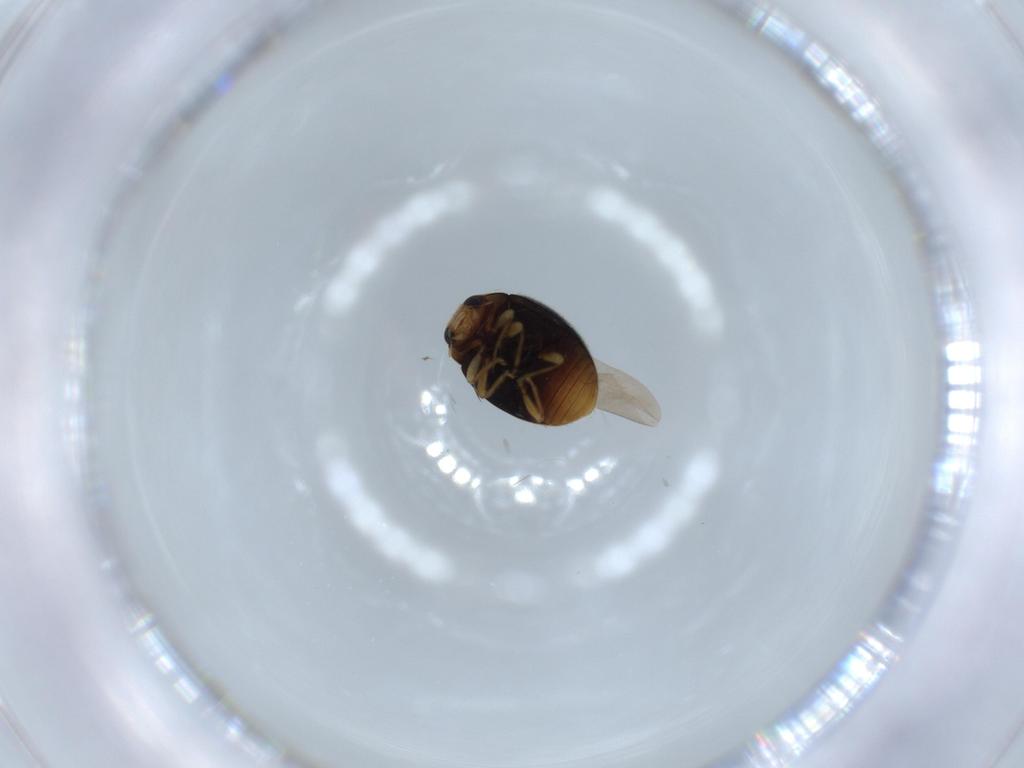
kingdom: Animalia
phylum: Arthropoda
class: Insecta
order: Coleoptera
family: Coccinellidae
